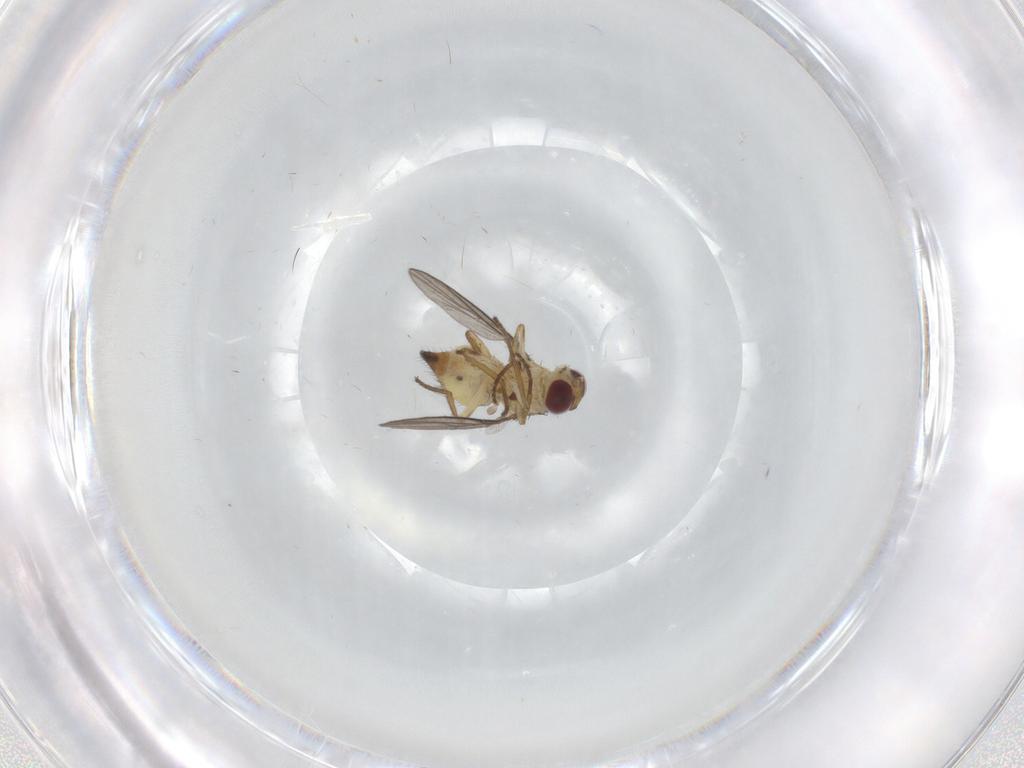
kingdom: Animalia
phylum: Arthropoda
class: Insecta
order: Diptera
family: Agromyzidae
